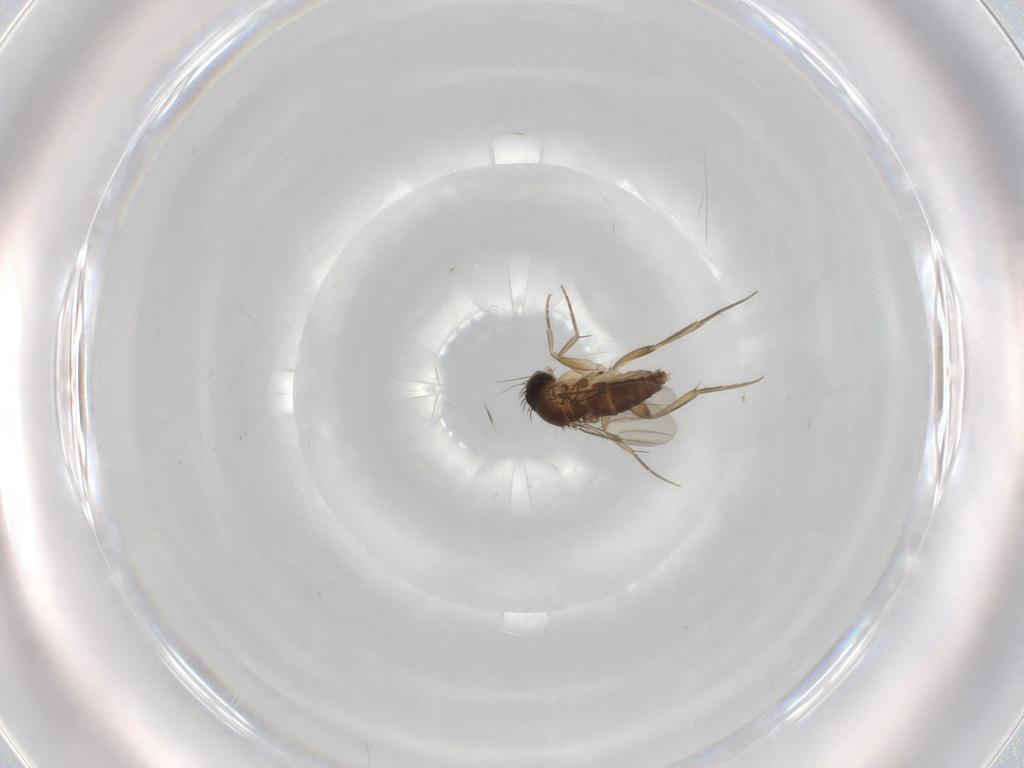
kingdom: Animalia
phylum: Arthropoda
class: Insecta
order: Diptera
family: Phoridae
